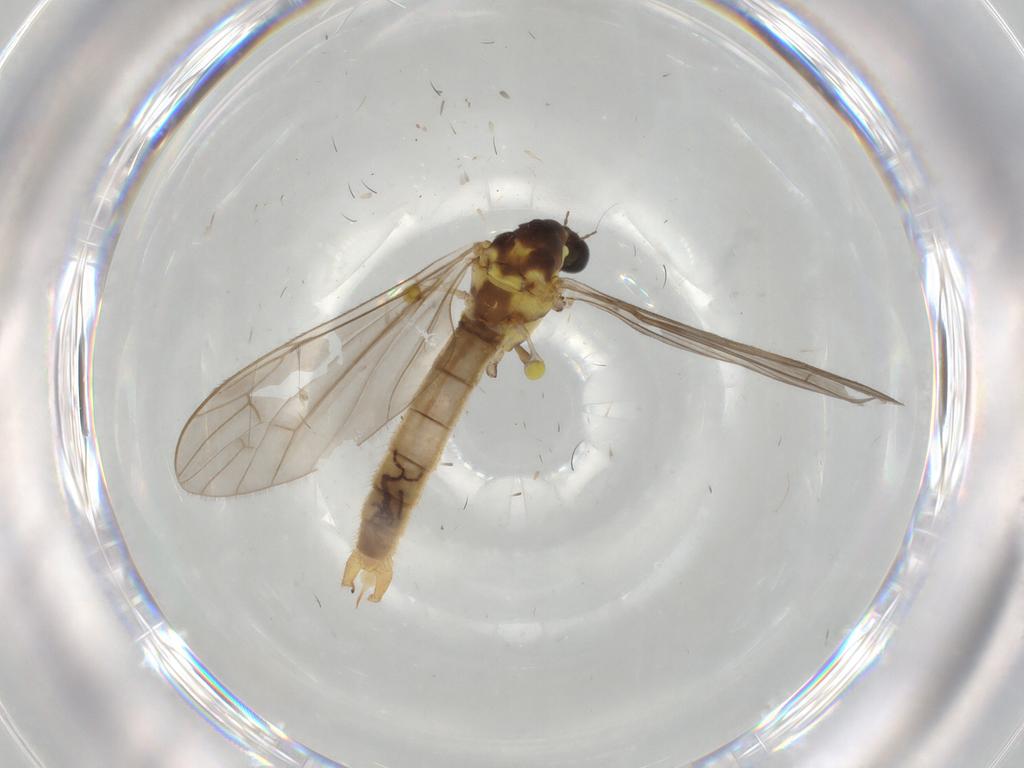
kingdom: Animalia
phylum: Arthropoda
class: Insecta
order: Diptera
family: Cecidomyiidae
